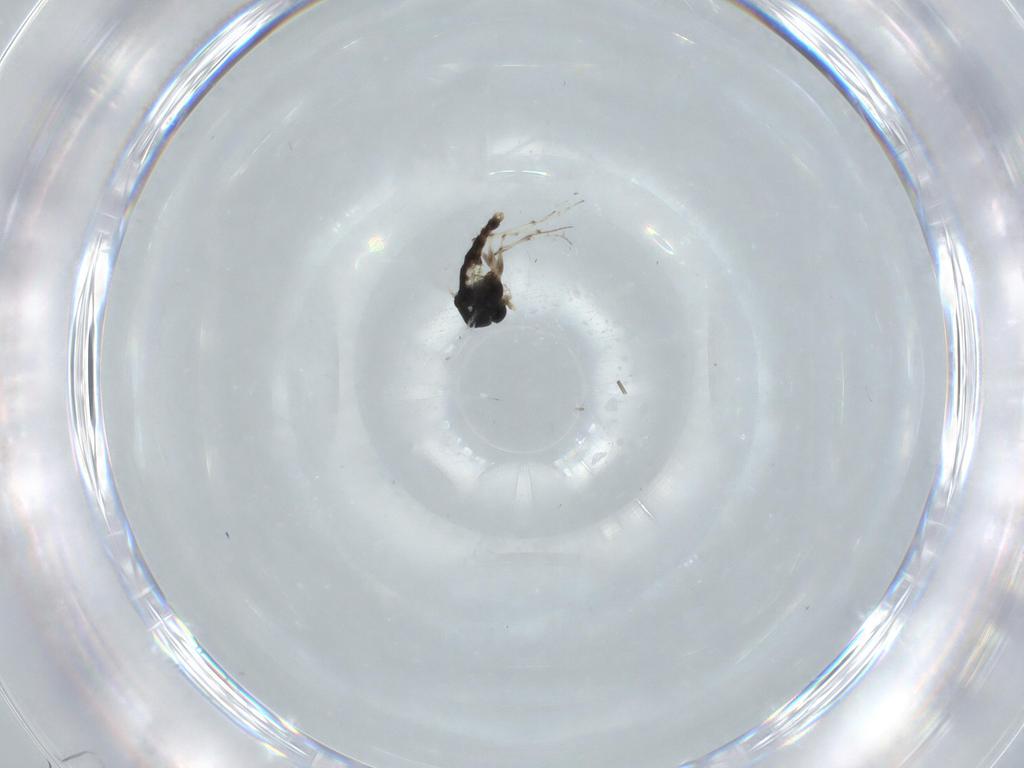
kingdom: Animalia
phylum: Arthropoda
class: Insecta
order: Diptera
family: Chironomidae
